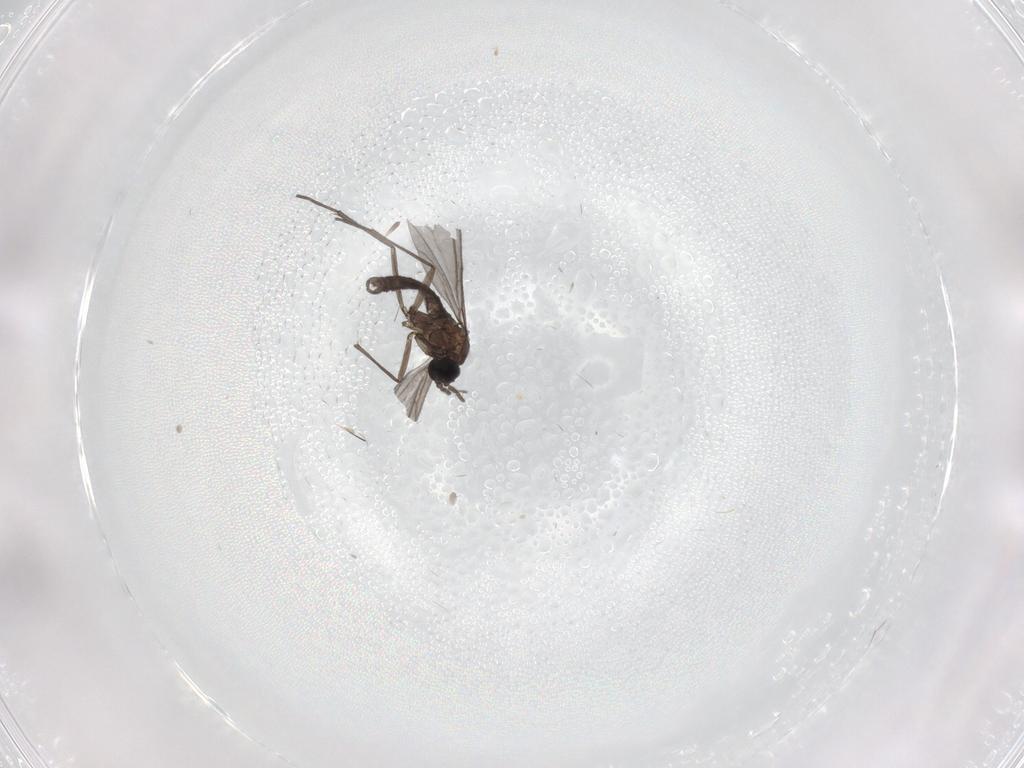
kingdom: Animalia
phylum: Arthropoda
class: Insecta
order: Diptera
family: Sciaridae
